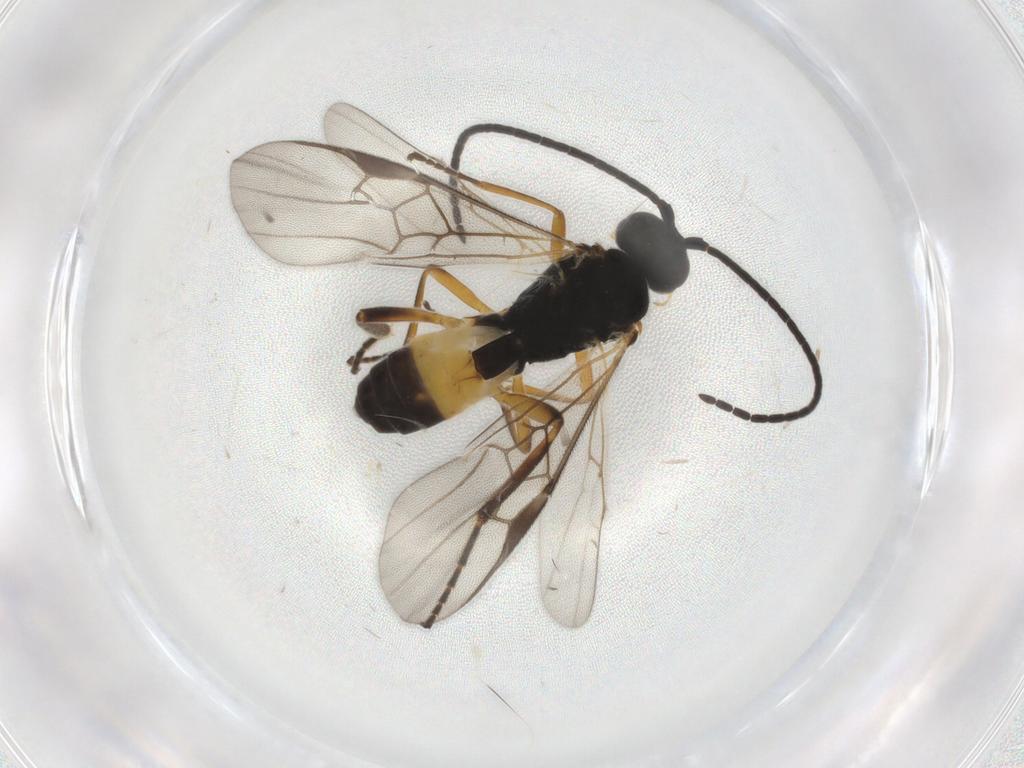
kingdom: Animalia
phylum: Arthropoda
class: Insecta
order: Hymenoptera
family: Braconidae
